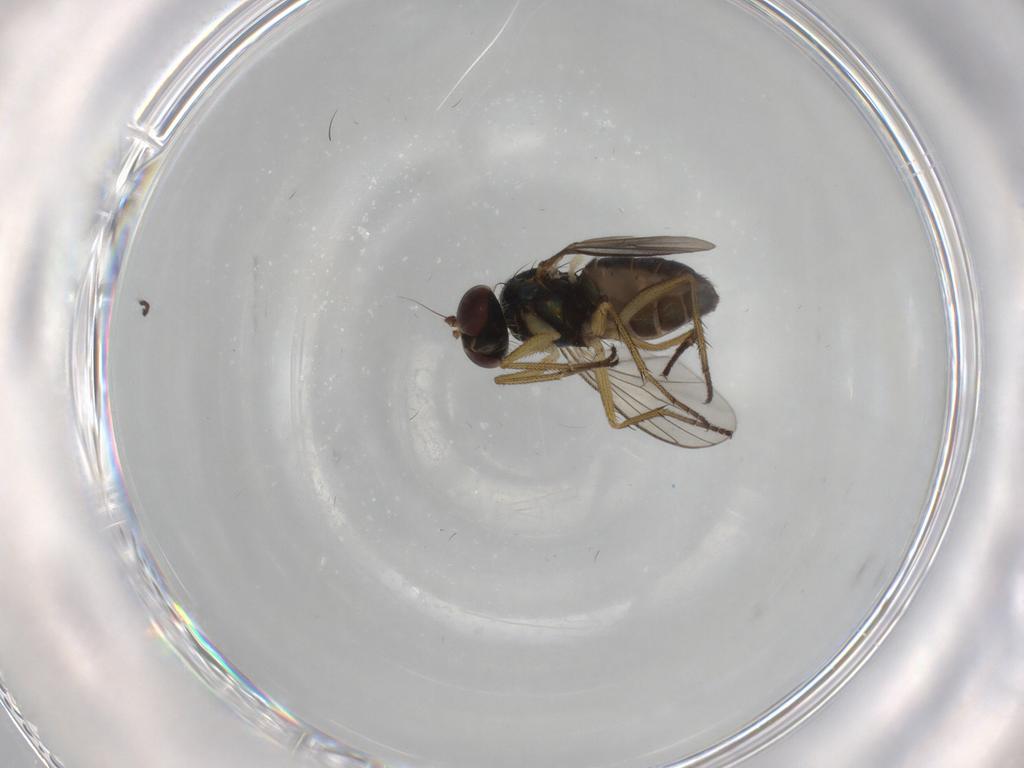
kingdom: Animalia
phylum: Arthropoda
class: Insecta
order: Diptera
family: Dolichopodidae
